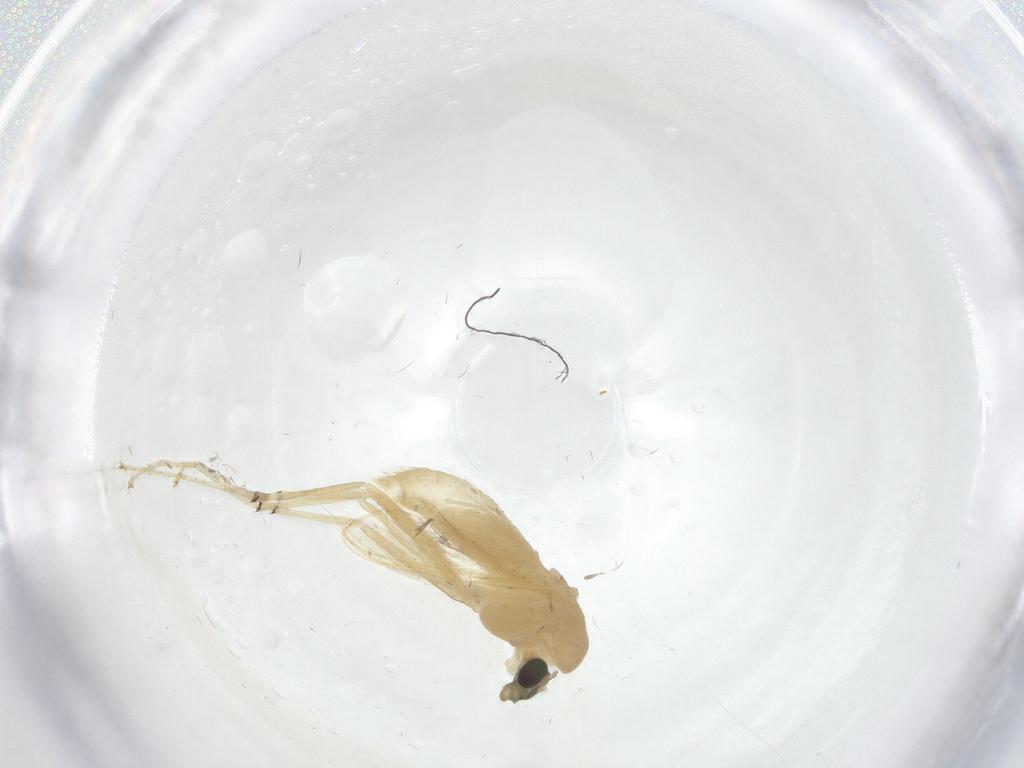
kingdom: Animalia
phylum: Arthropoda
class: Insecta
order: Diptera
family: Chironomidae
